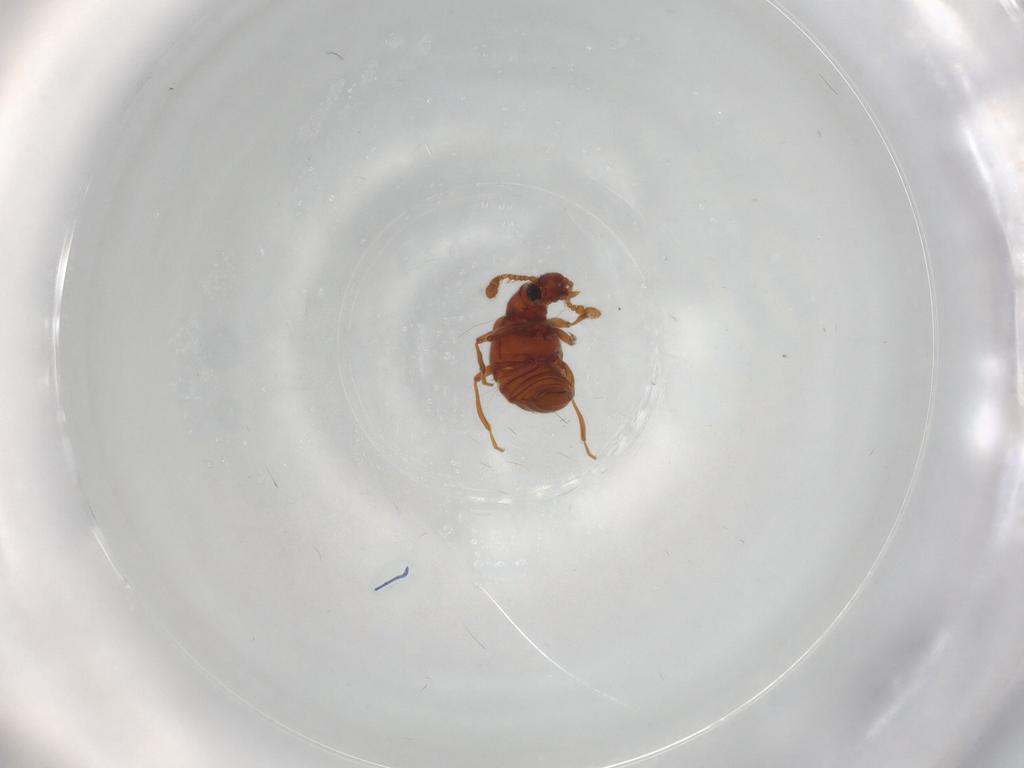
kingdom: Animalia
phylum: Arthropoda
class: Insecta
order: Coleoptera
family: Staphylinidae
